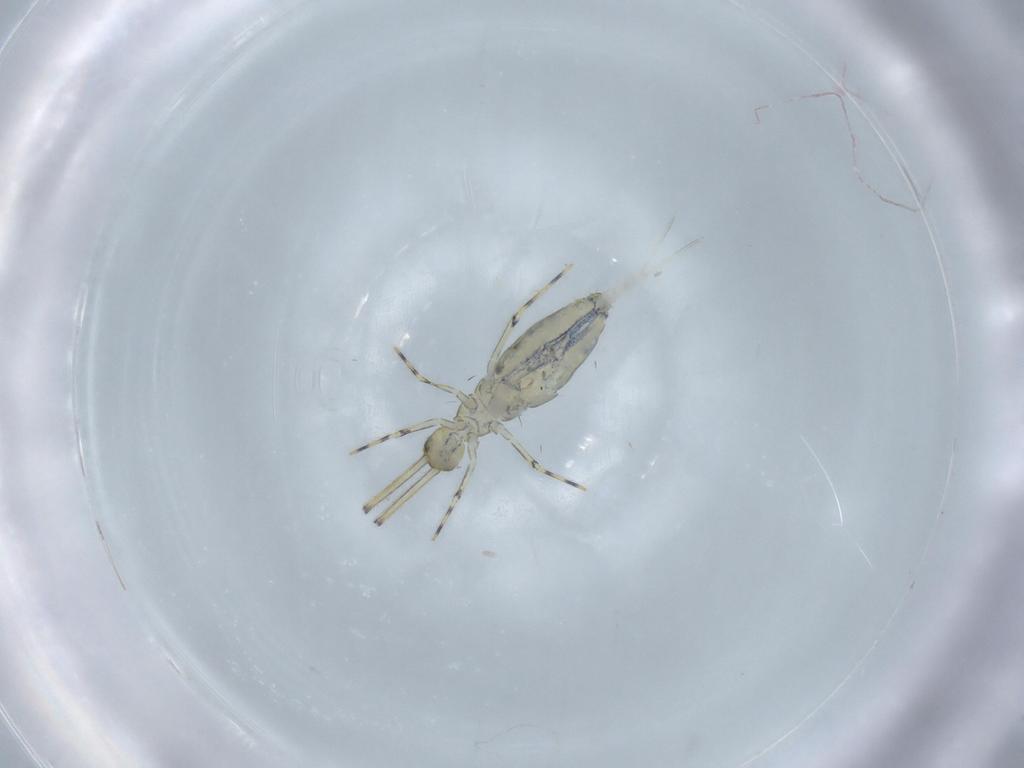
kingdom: Animalia
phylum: Arthropoda
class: Collembola
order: Entomobryomorpha
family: Paronellidae
